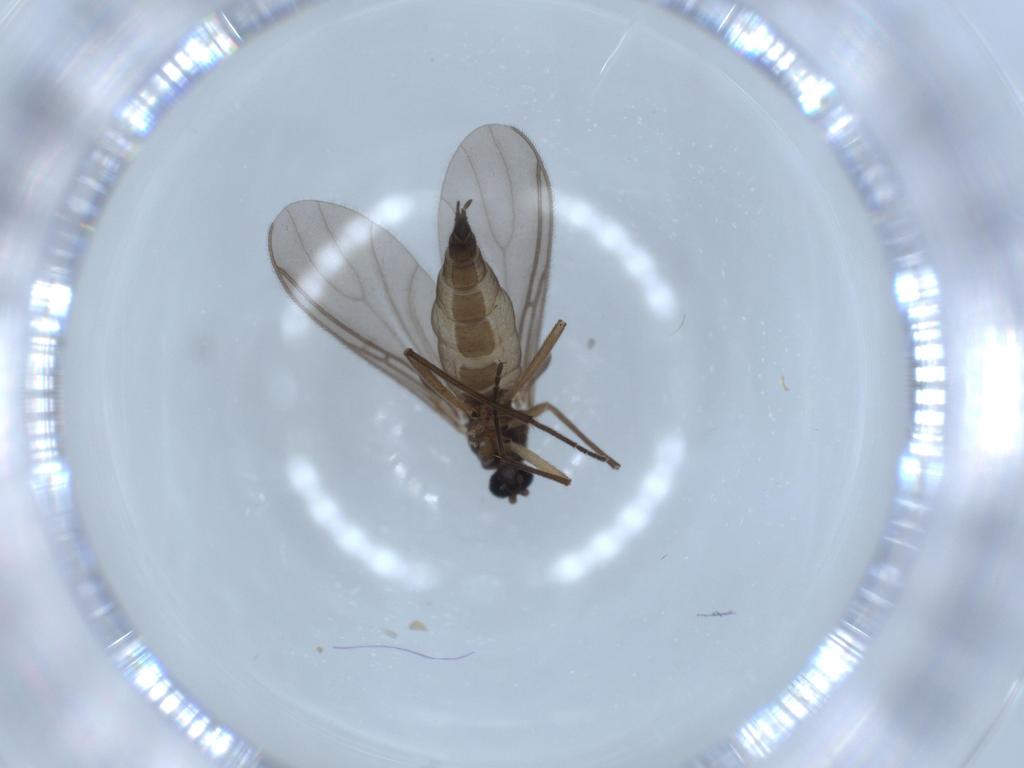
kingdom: Animalia
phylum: Arthropoda
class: Insecta
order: Diptera
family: Sciaridae
